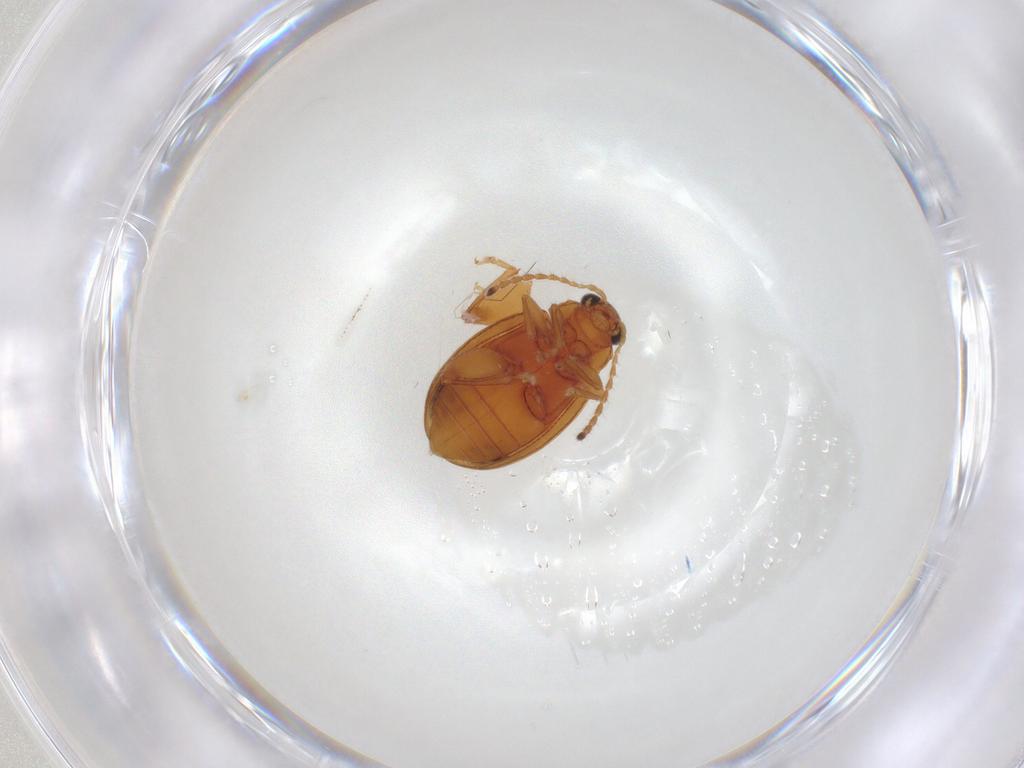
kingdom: Animalia
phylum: Arthropoda
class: Insecta
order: Coleoptera
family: Chrysomelidae
